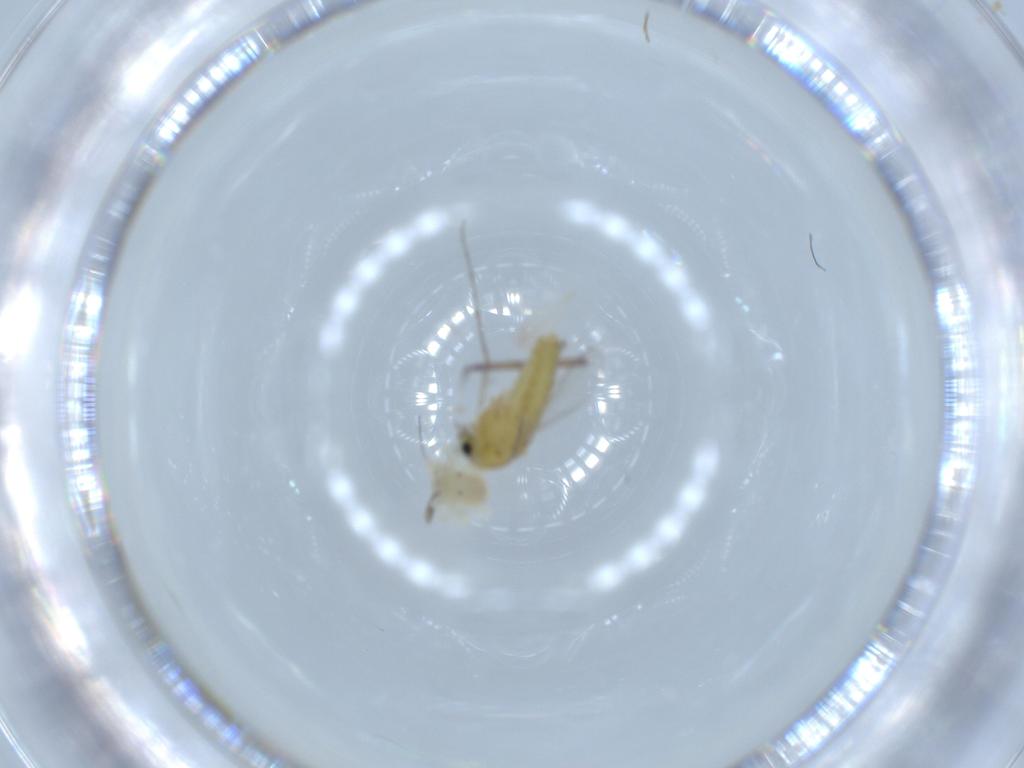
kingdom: Animalia
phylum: Arthropoda
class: Insecta
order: Diptera
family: Chironomidae
